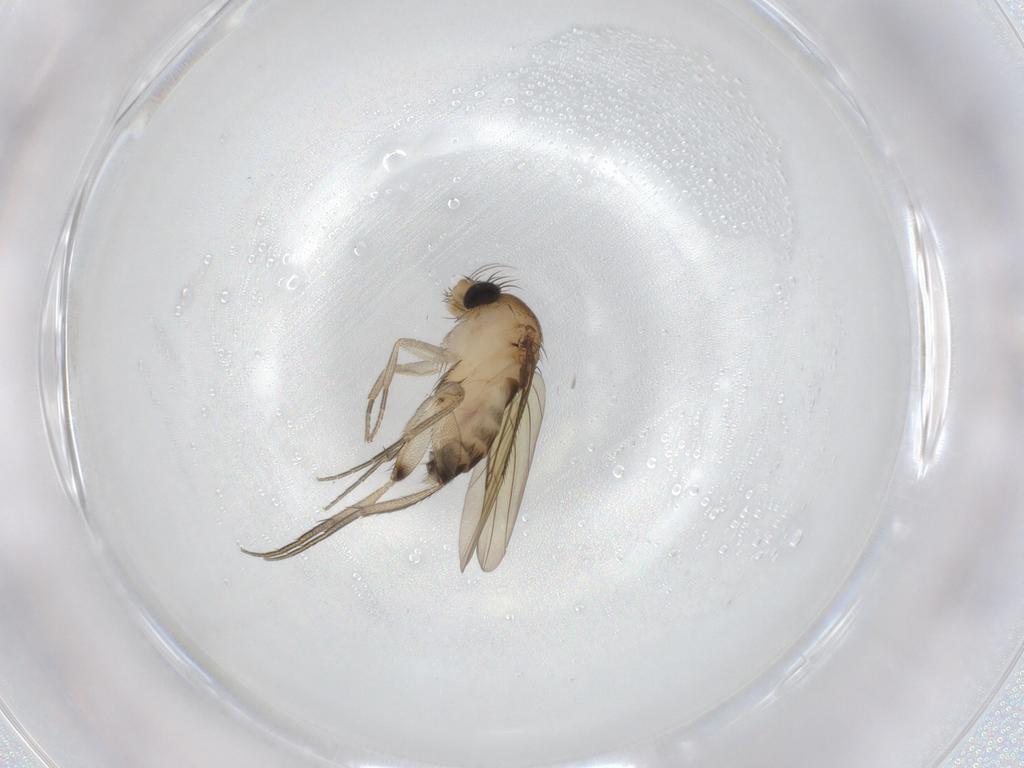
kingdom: Animalia
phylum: Arthropoda
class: Insecta
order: Diptera
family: Phoridae
